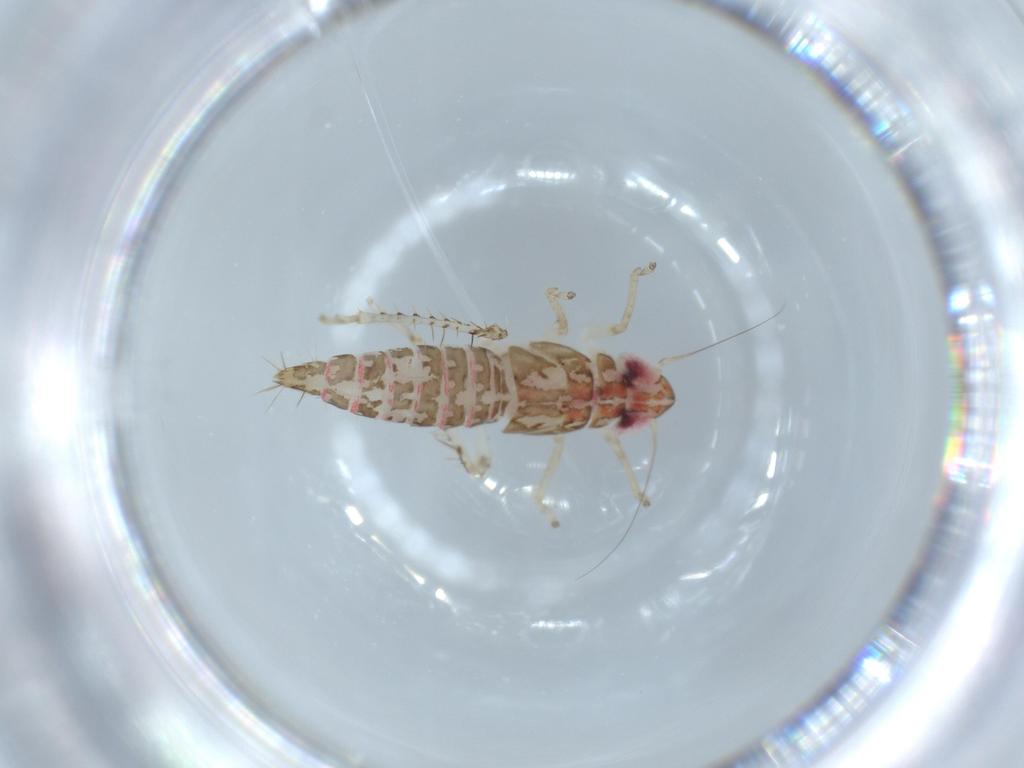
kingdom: Animalia
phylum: Arthropoda
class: Insecta
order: Hemiptera
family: Cicadellidae
